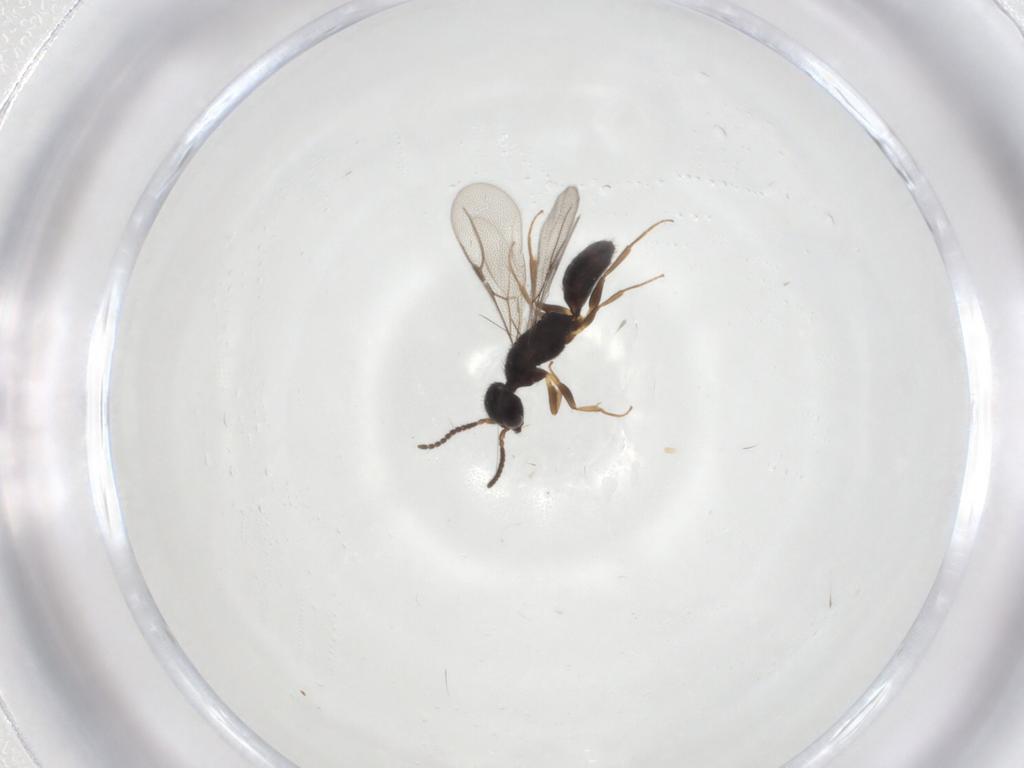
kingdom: Animalia
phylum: Arthropoda
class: Insecta
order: Hymenoptera
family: Bethylidae
